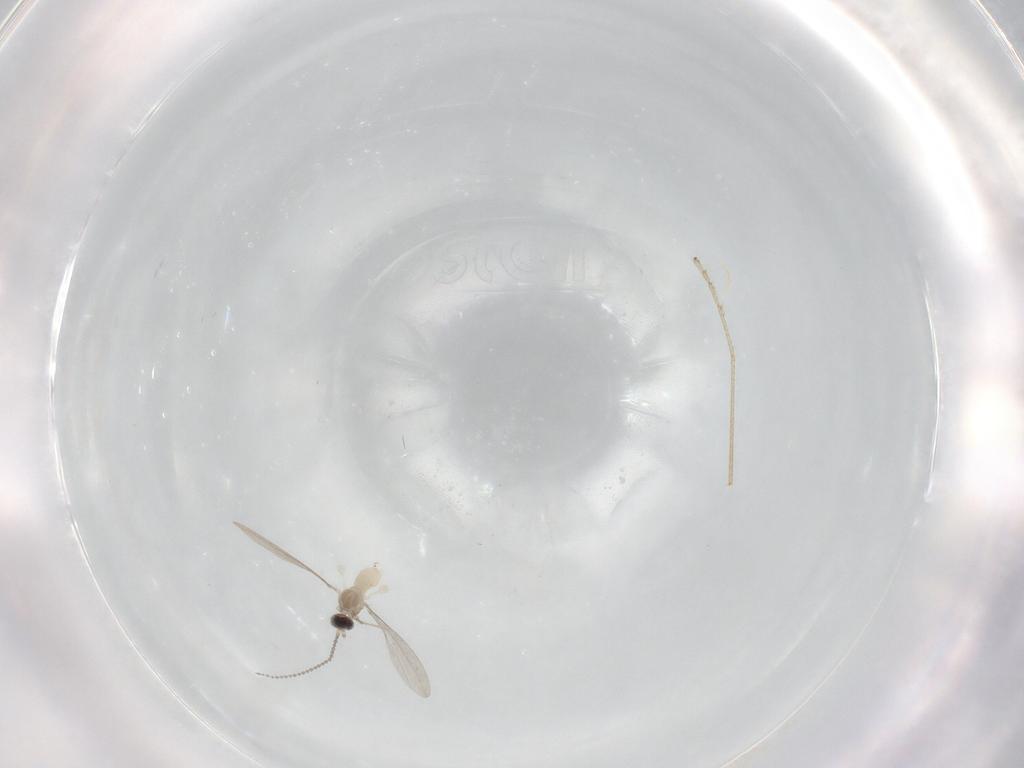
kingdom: Animalia
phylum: Arthropoda
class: Insecta
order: Diptera
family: Cecidomyiidae
